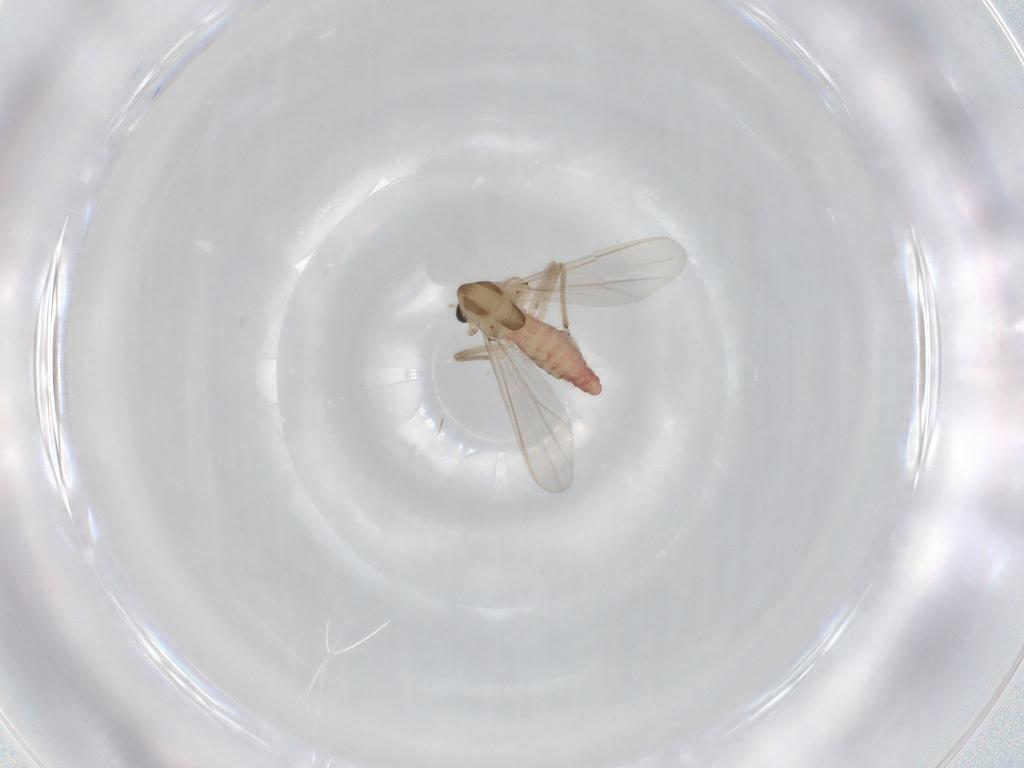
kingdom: Animalia
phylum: Arthropoda
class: Insecta
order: Diptera
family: Chironomidae
